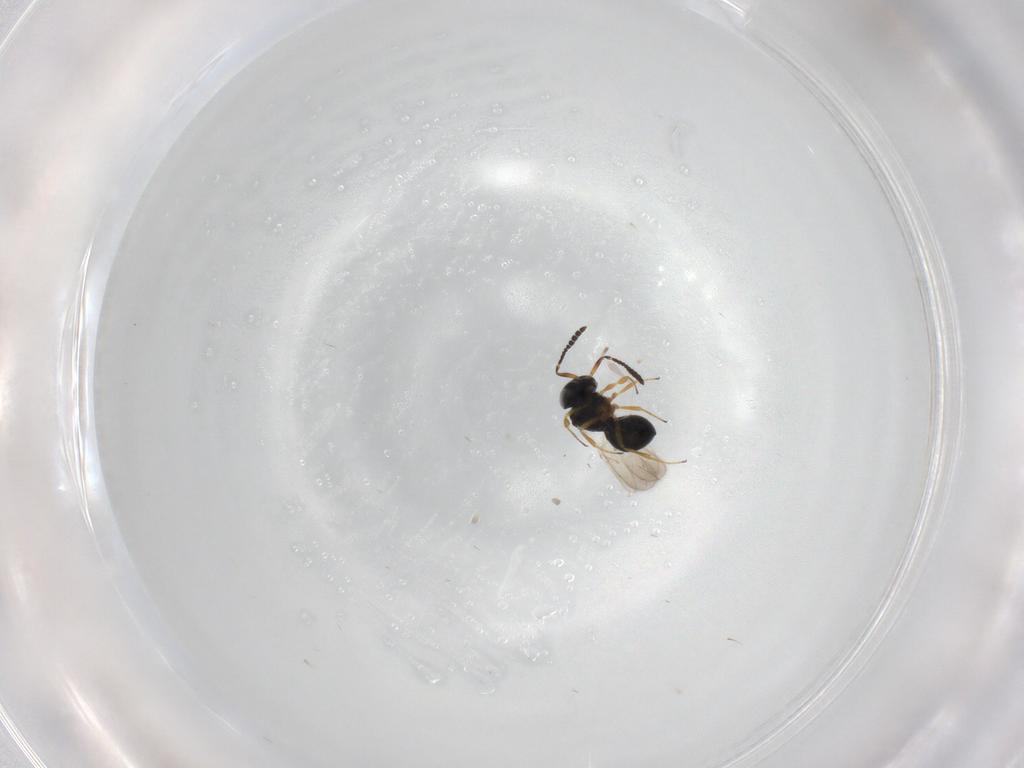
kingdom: Animalia
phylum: Arthropoda
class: Insecta
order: Hymenoptera
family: Scelionidae
